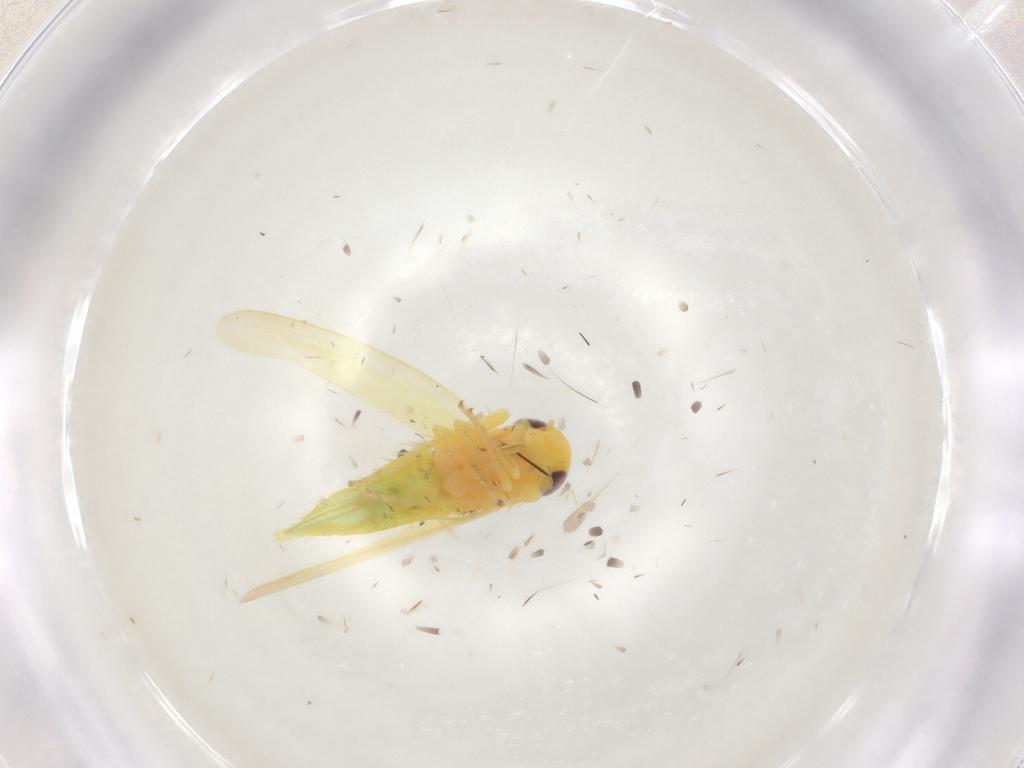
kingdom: Animalia
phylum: Arthropoda
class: Insecta
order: Hemiptera
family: Cicadellidae
